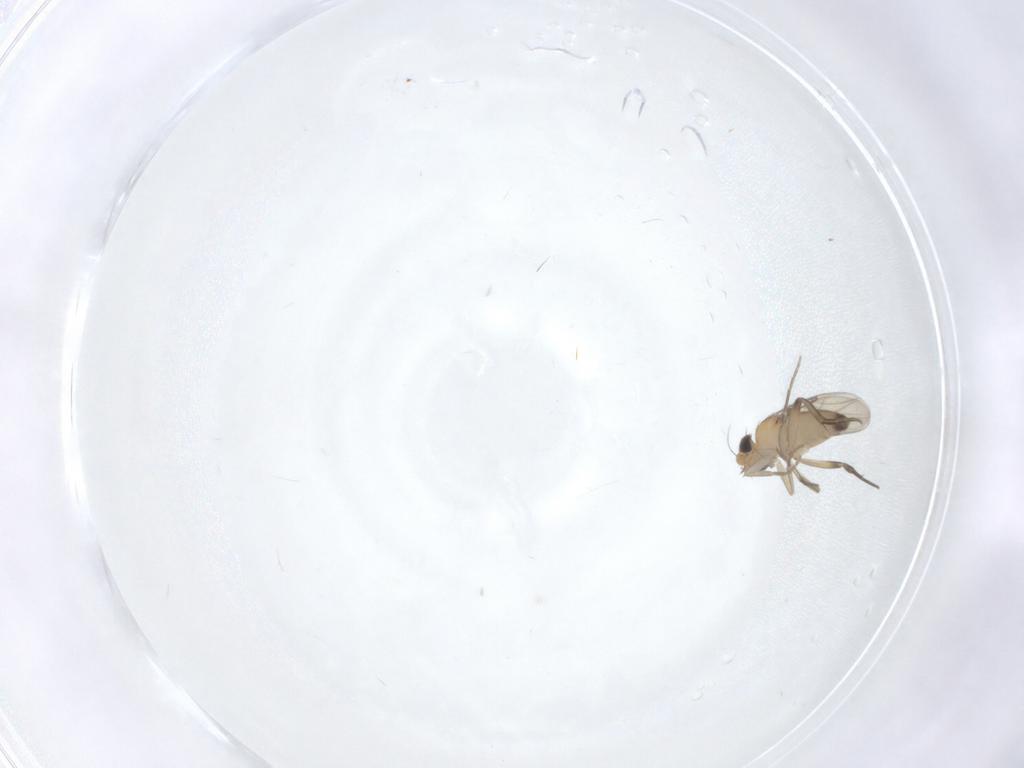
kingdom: Animalia
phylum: Arthropoda
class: Insecta
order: Diptera
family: Phoridae
